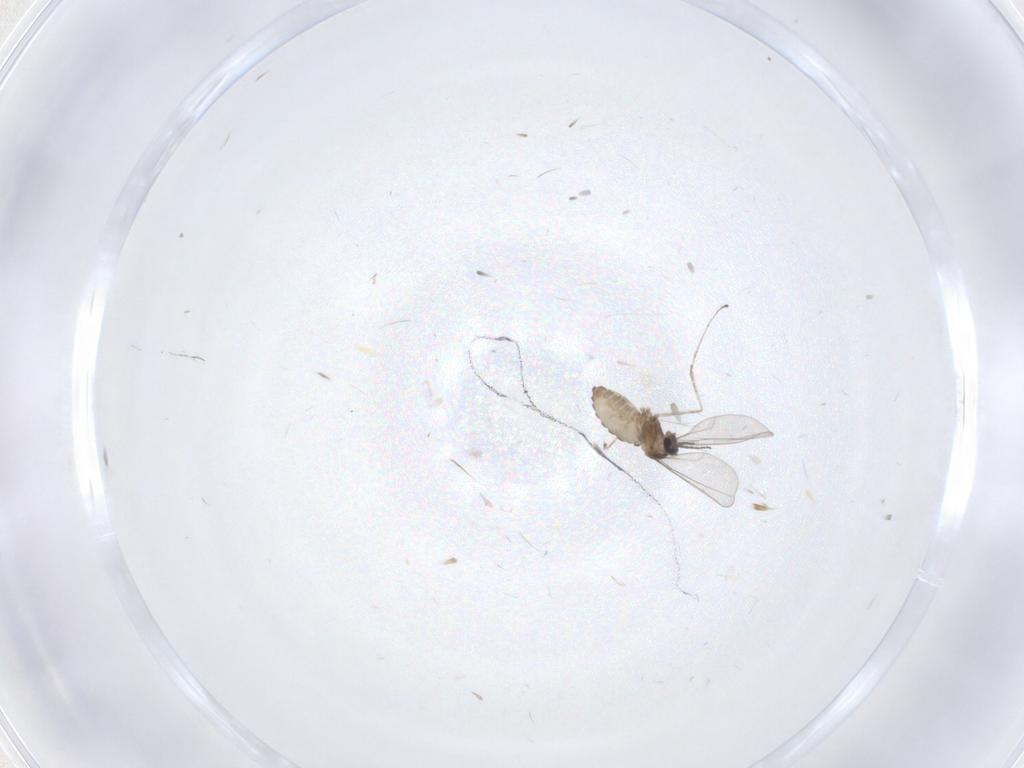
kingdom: Animalia
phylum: Arthropoda
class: Insecta
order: Diptera
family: Cecidomyiidae
